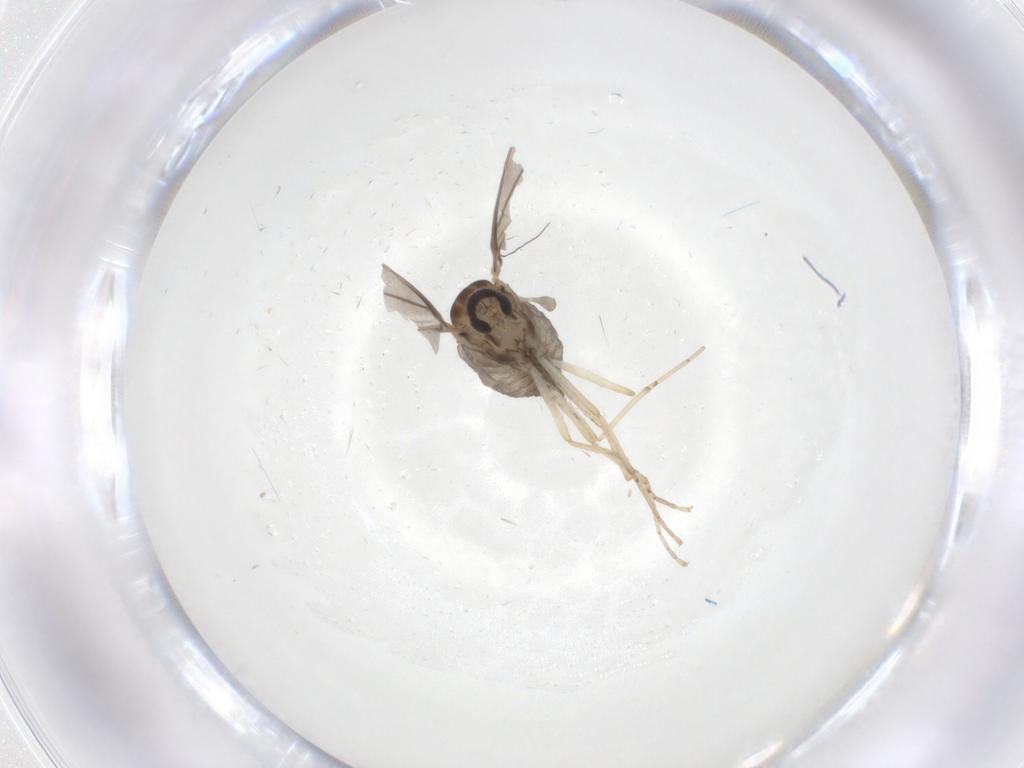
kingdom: Animalia
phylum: Arthropoda
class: Insecta
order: Diptera
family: Cecidomyiidae
